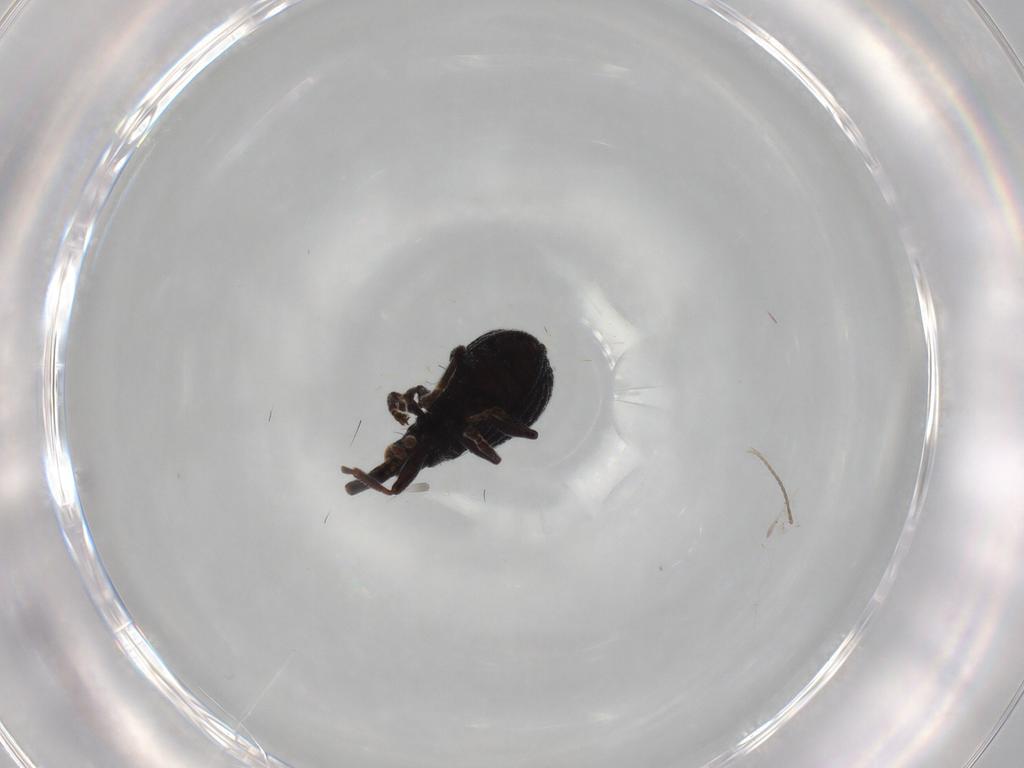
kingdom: Animalia
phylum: Arthropoda
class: Insecta
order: Coleoptera
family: Brentidae
